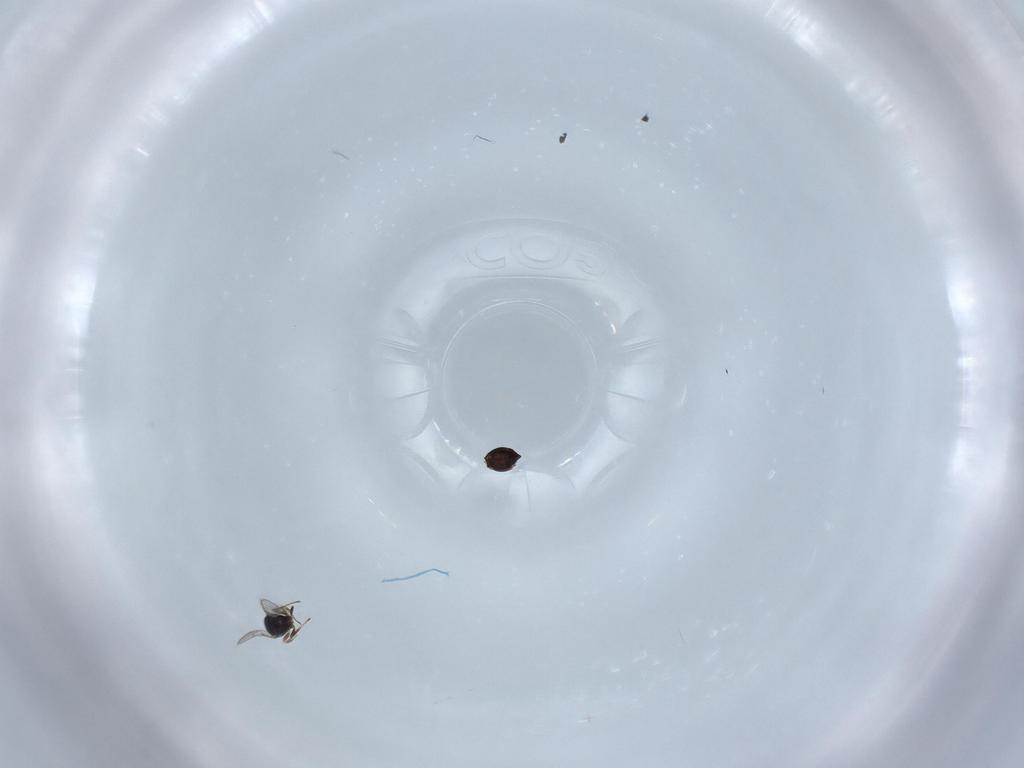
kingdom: Animalia
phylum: Arthropoda
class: Insecta
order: Hymenoptera
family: Scelionidae
